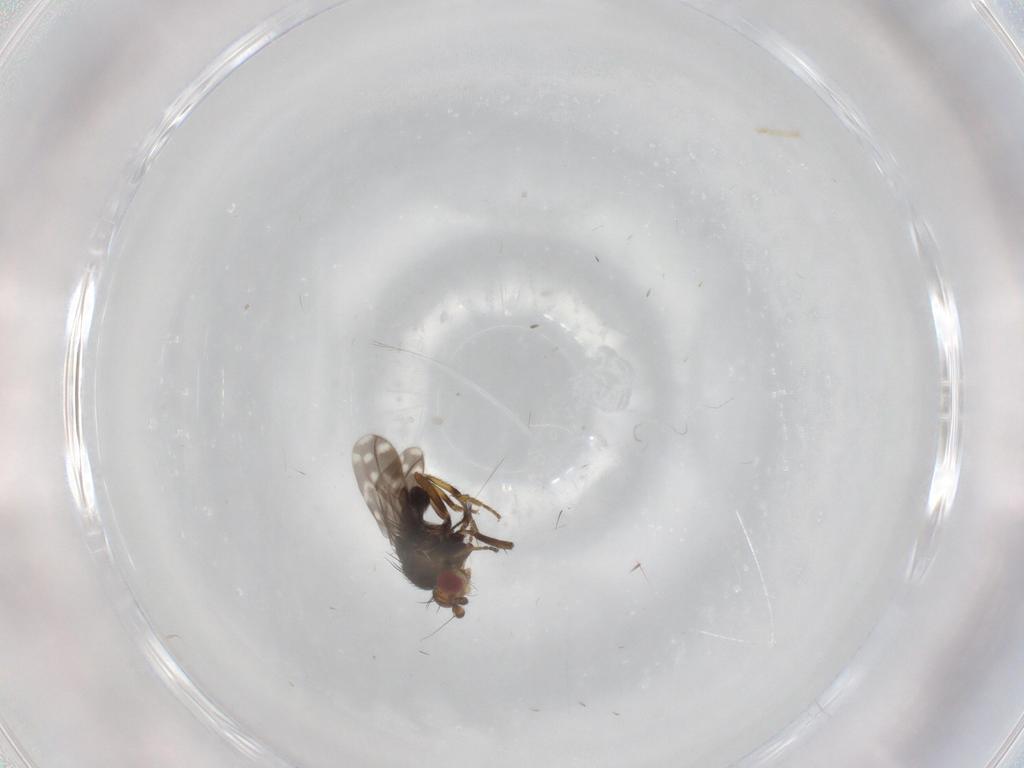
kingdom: Animalia
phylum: Arthropoda
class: Insecta
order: Diptera
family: Sphaeroceridae
